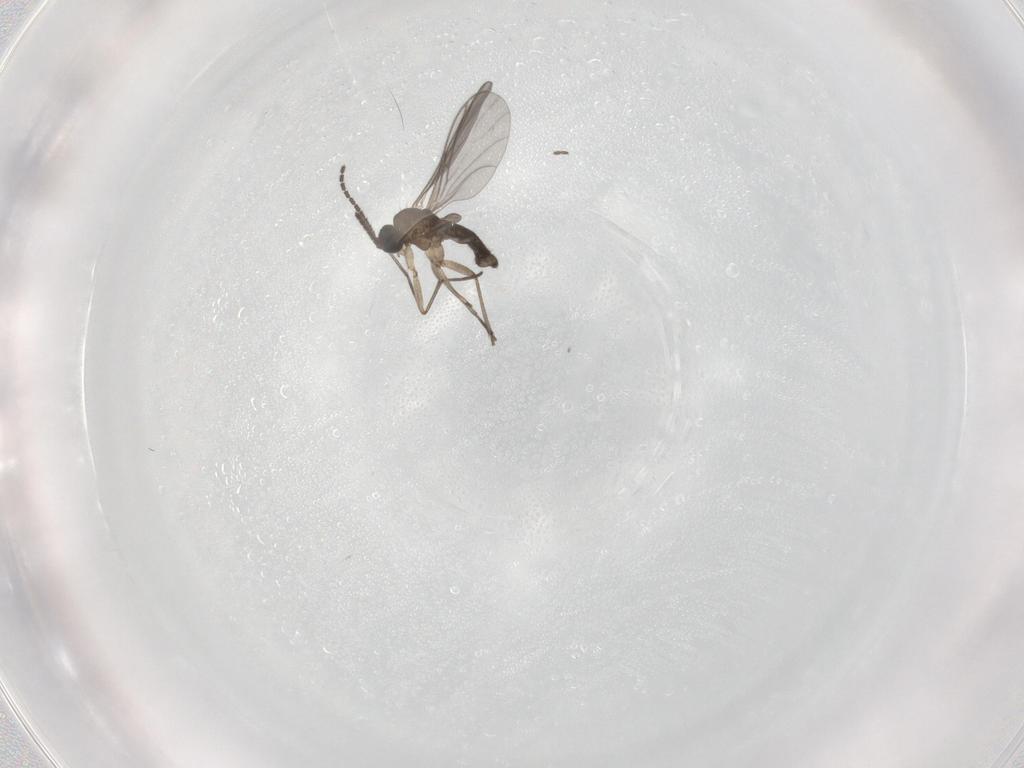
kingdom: Animalia
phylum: Arthropoda
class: Insecta
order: Diptera
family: Sciaridae
